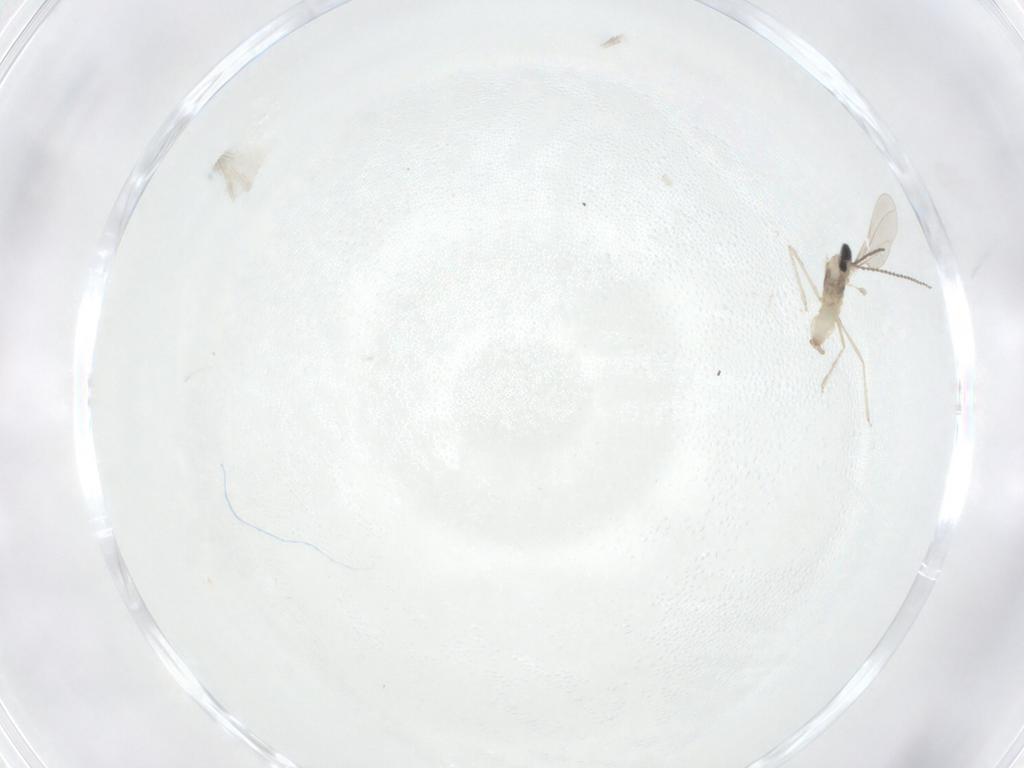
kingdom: Animalia
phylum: Arthropoda
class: Insecta
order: Diptera
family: Cecidomyiidae
